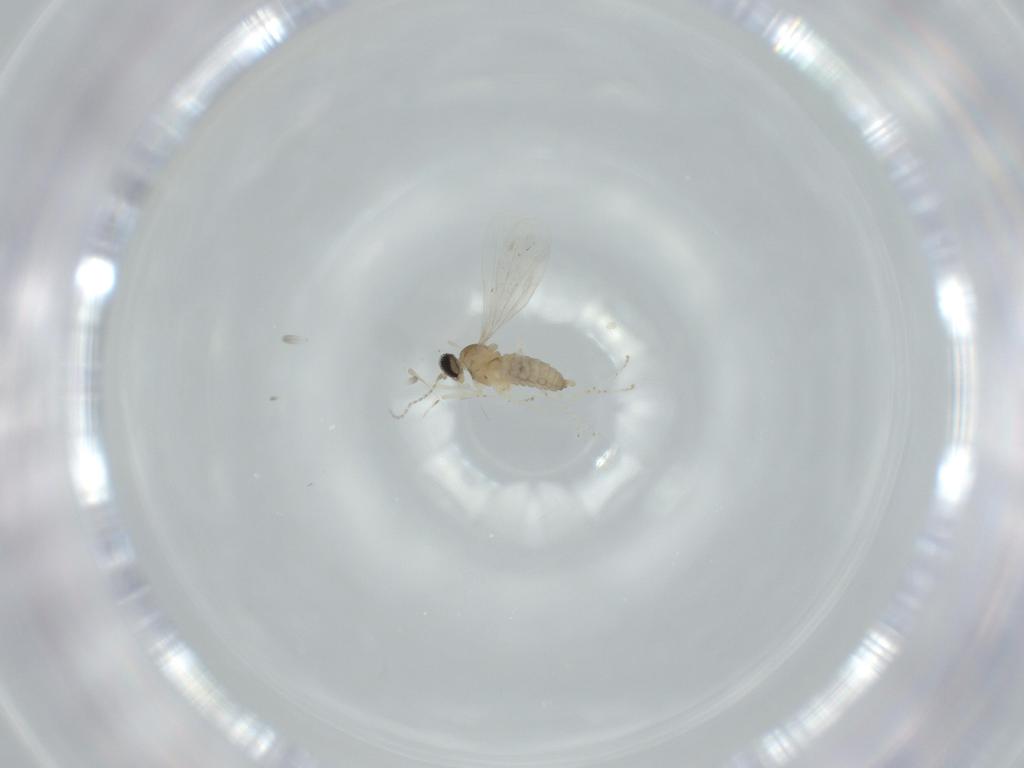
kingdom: Animalia
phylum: Arthropoda
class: Insecta
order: Diptera
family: Cecidomyiidae
